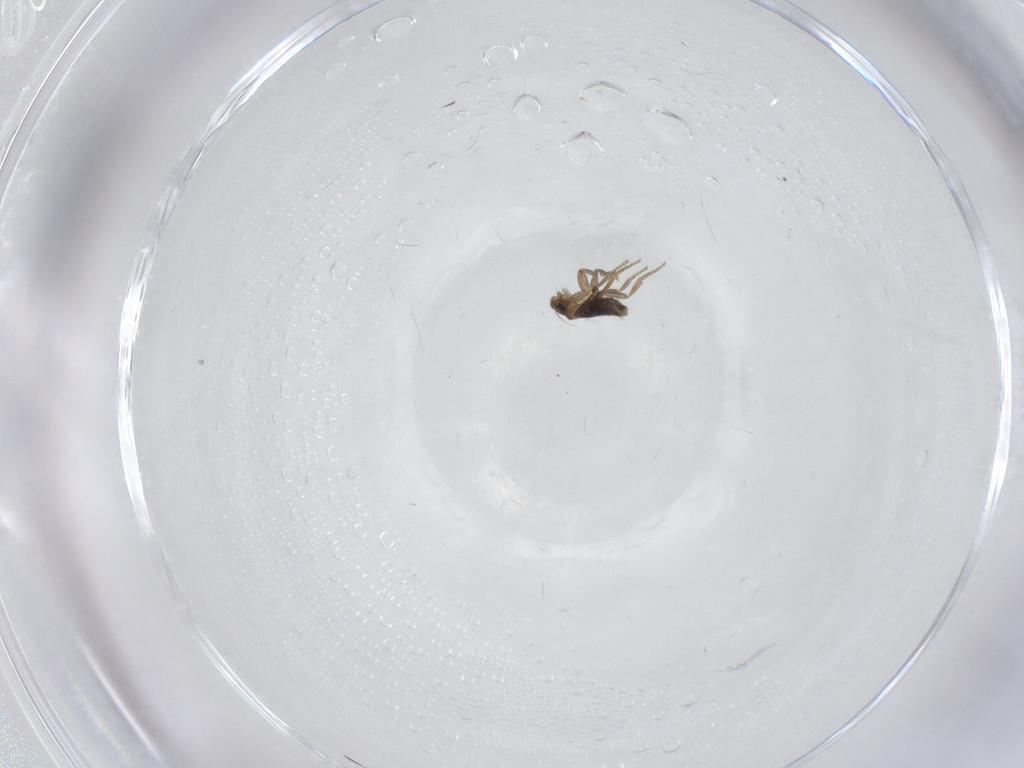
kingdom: Animalia
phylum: Arthropoda
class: Insecta
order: Diptera
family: Phoridae
